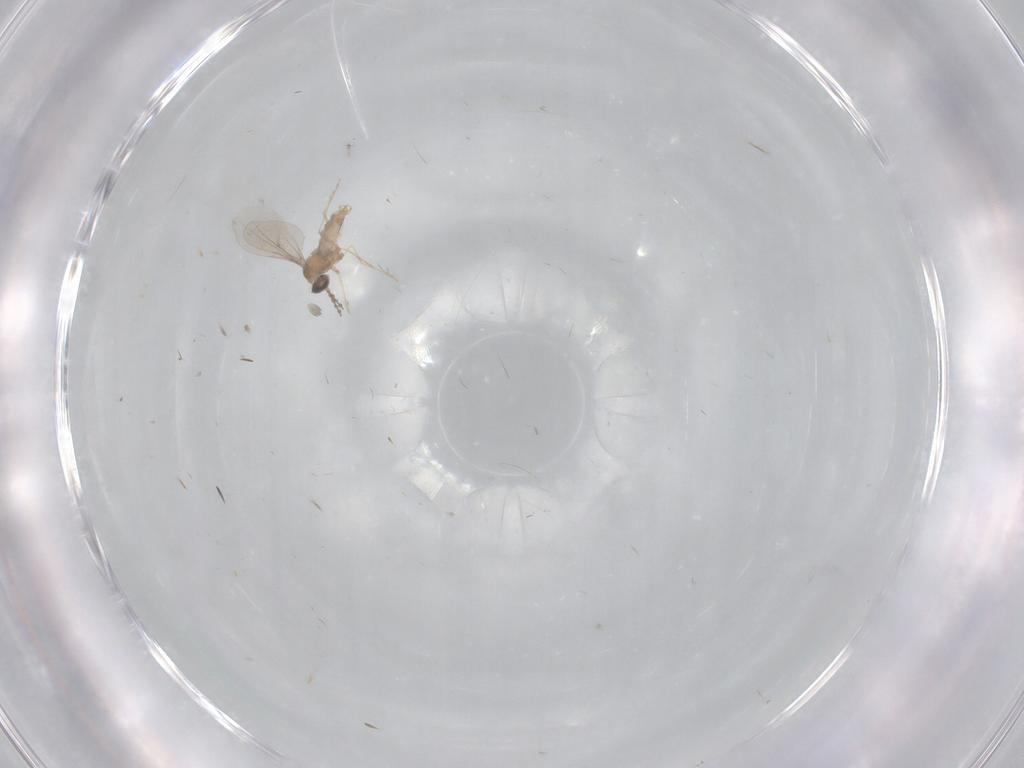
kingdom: Animalia
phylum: Arthropoda
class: Insecta
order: Diptera
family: Cecidomyiidae
